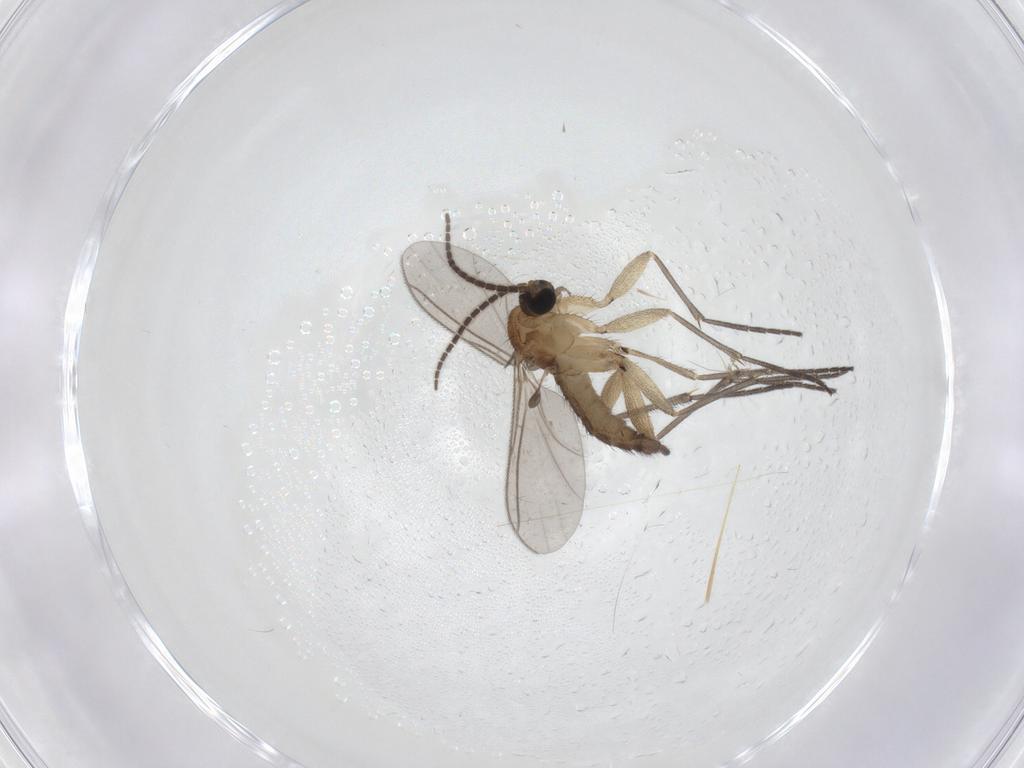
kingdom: Animalia
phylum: Arthropoda
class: Insecta
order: Diptera
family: Sciaridae
